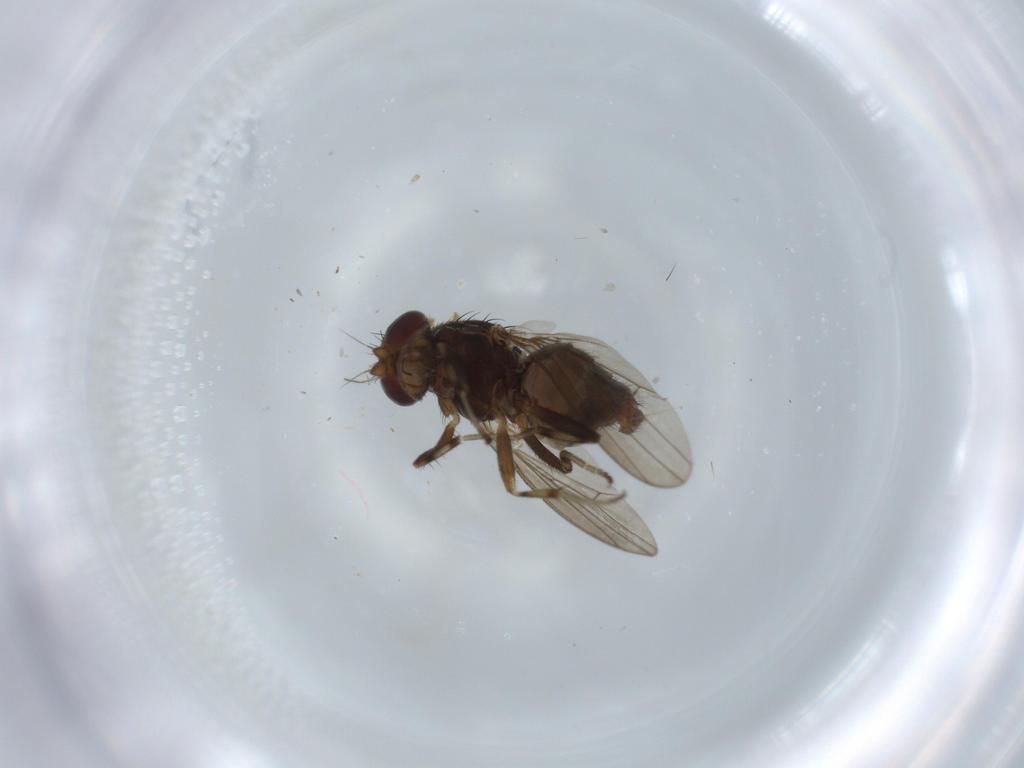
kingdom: Animalia
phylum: Arthropoda
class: Insecta
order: Diptera
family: Heleomyzidae
